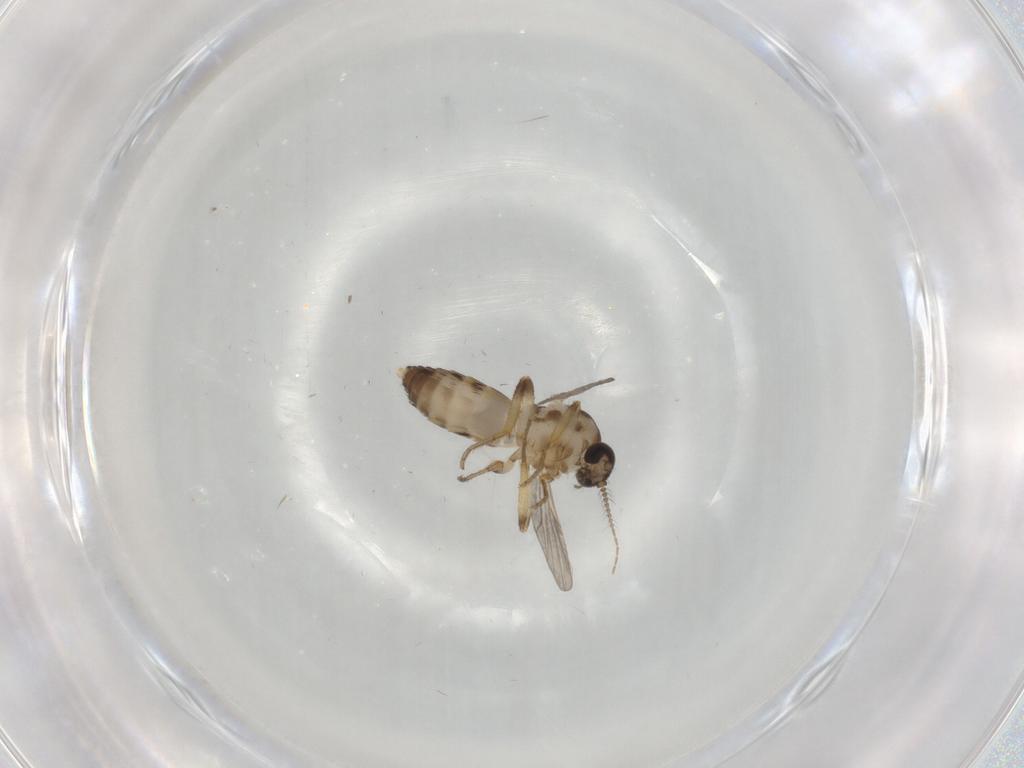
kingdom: Animalia
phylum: Arthropoda
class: Insecta
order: Diptera
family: Ceratopogonidae
